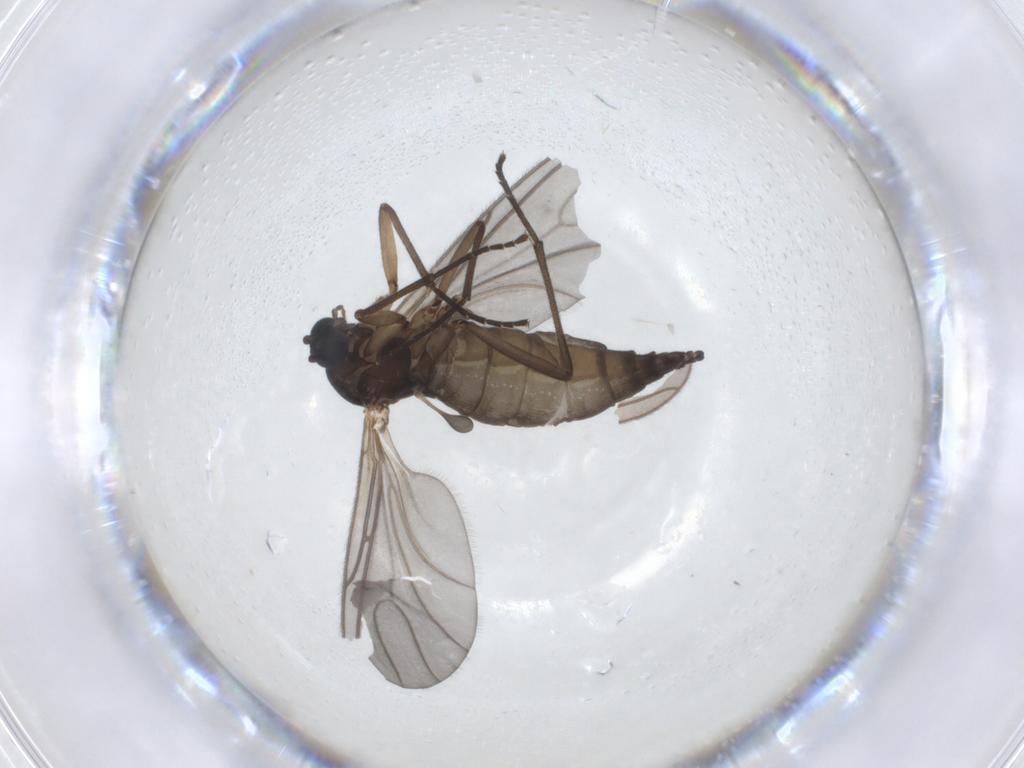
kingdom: Animalia
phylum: Arthropoda
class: Insecta
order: Diptera
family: Sciaridae
